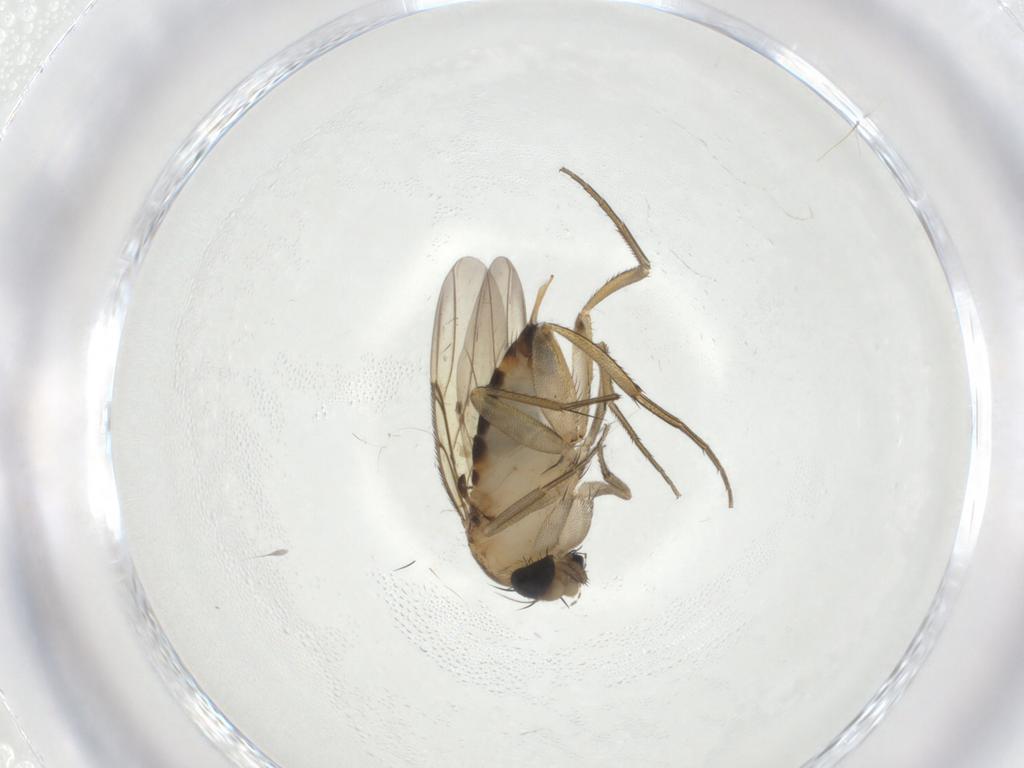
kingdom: Animalia
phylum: Arthropoda
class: Insecta
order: Diptera
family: Phoridae
